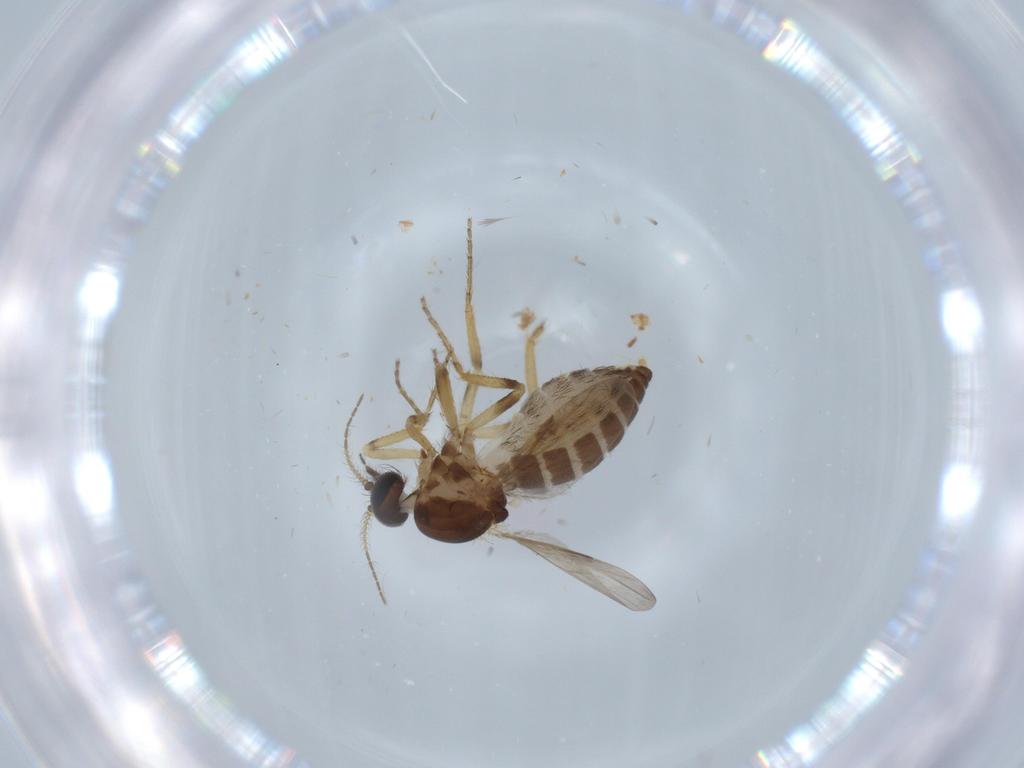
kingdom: Animalia
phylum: Arthropoda
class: Insecta
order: Diptera
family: Ceratopogonidae
